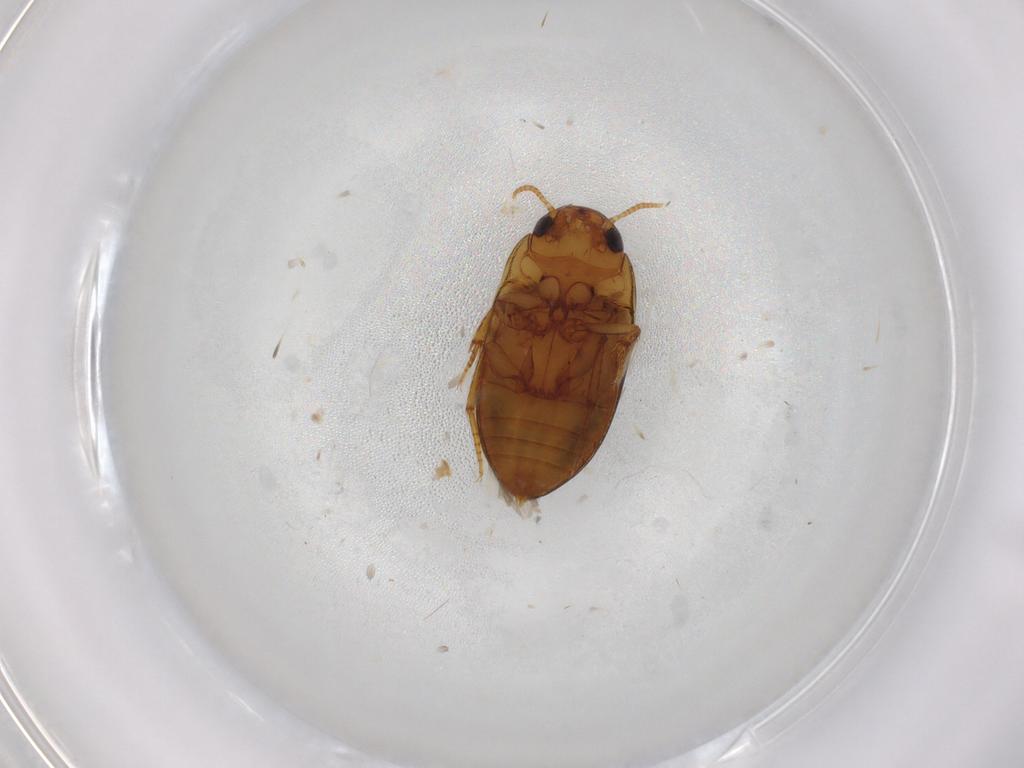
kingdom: Animalia
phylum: Arthropoda
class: Insecta
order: Coleoptera
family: Noteridae
